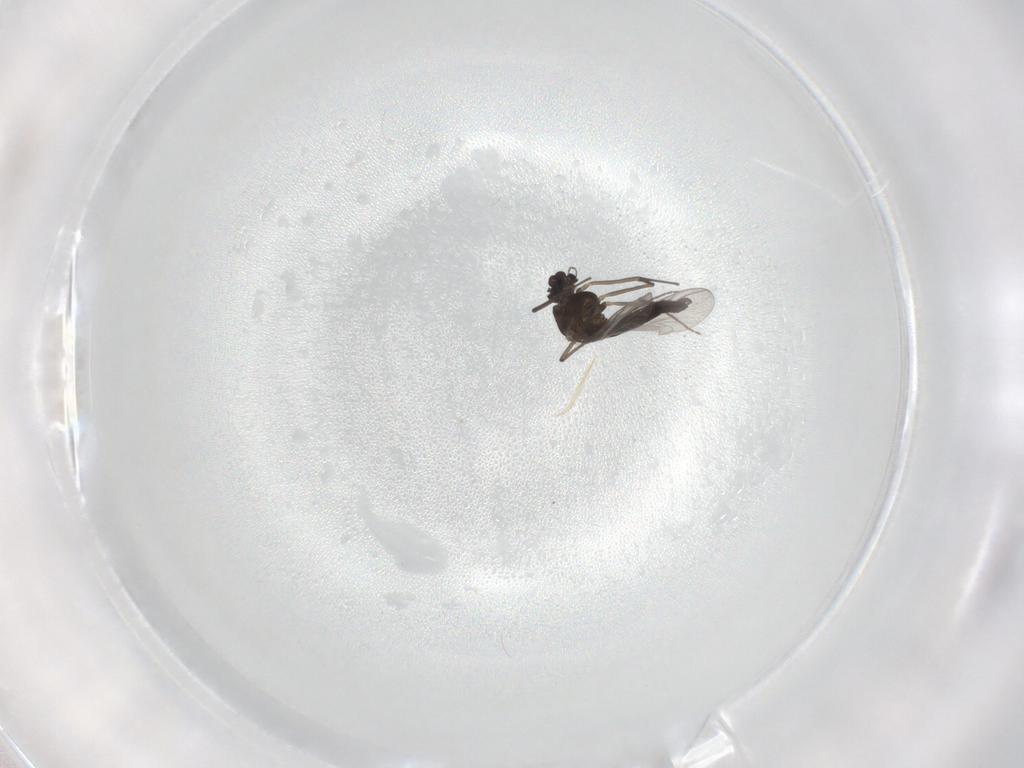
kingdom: Animalia
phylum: Arthropoda
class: Insecta
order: Diptera
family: Chironomidae
